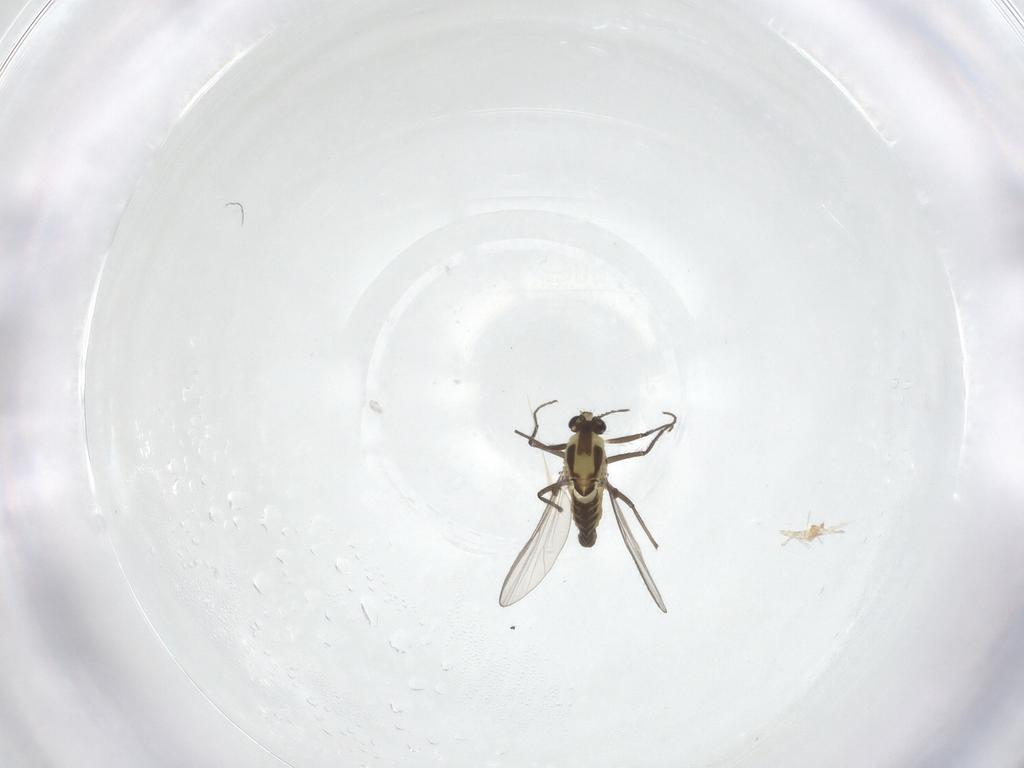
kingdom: Animalia
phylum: Arthropoda
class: Insecta
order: Diptera
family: Chironomidae
